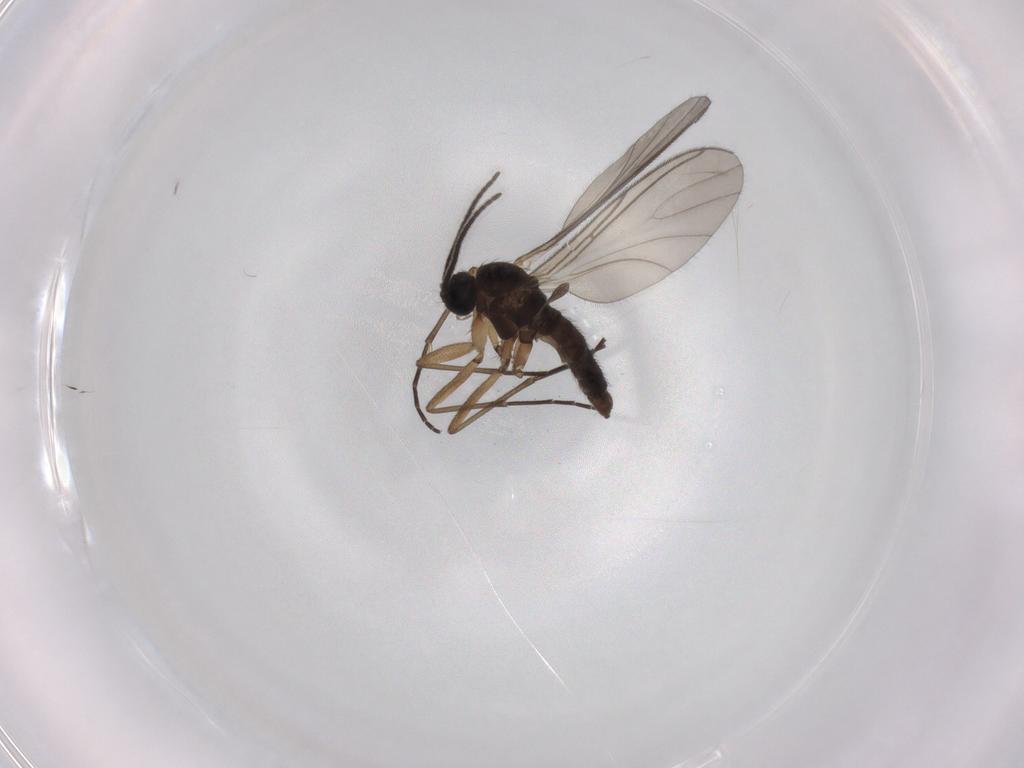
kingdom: Animalia
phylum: Arthropoda
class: Insecta
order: Diptera
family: Sciaridae
